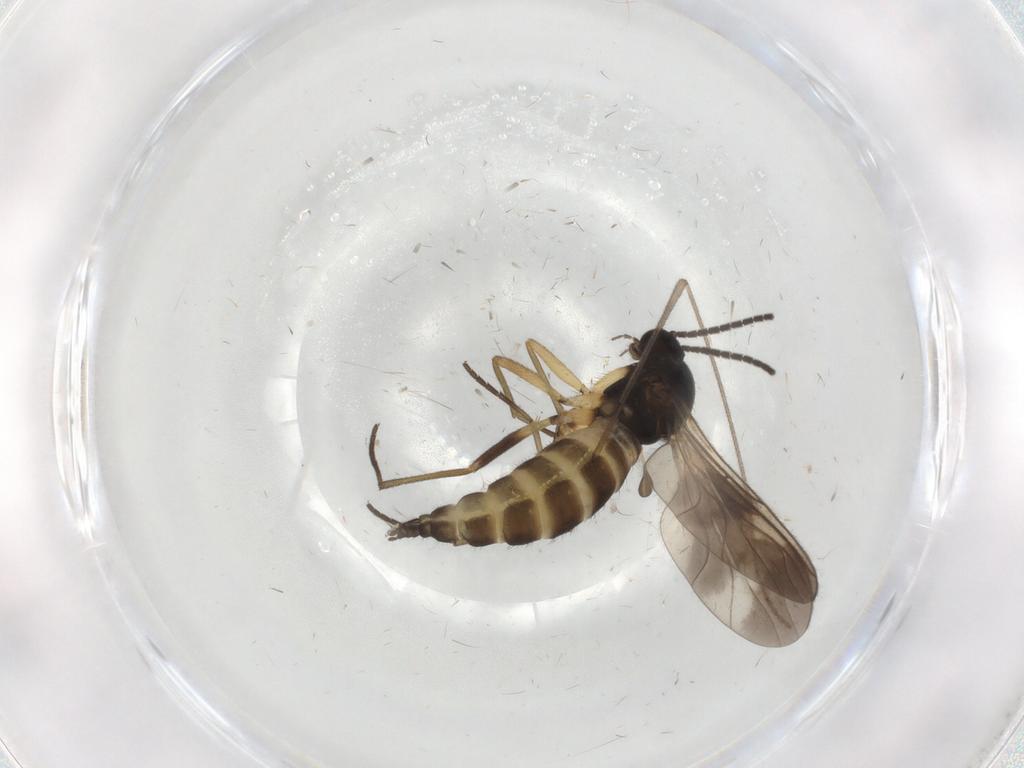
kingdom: Animalia
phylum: Arthropoda
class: Insecta
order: Diptera
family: Sciaridae
